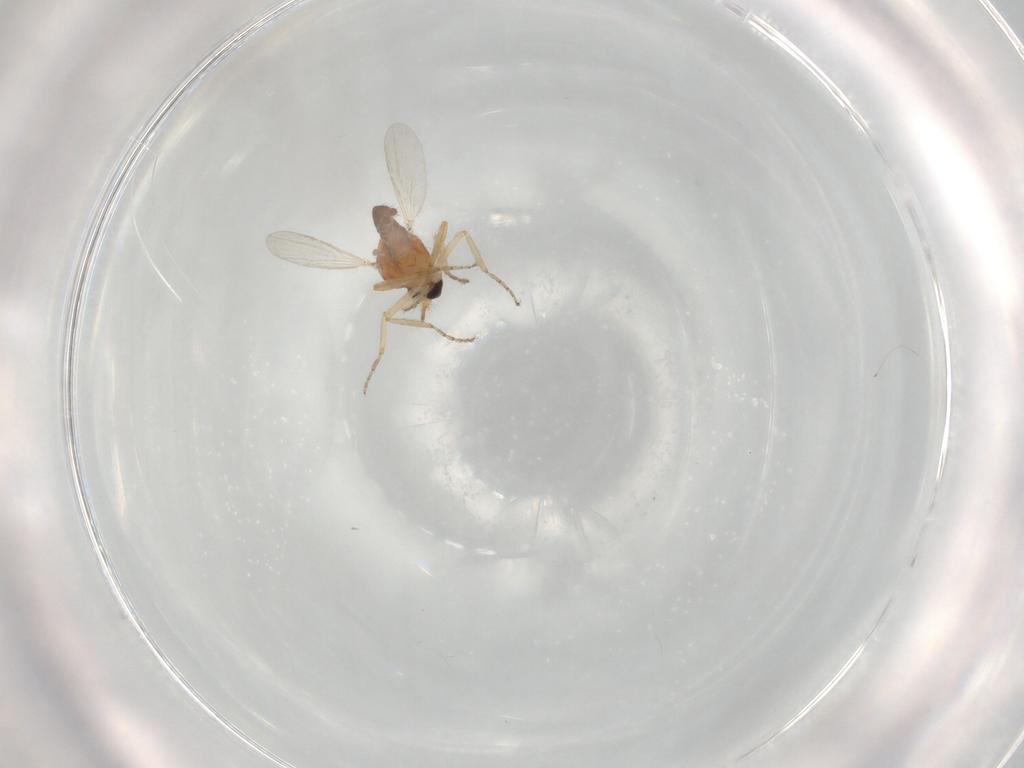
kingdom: Animalia
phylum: Arthropoda
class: Insecta
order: Diptera
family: Ceratopogonidae
